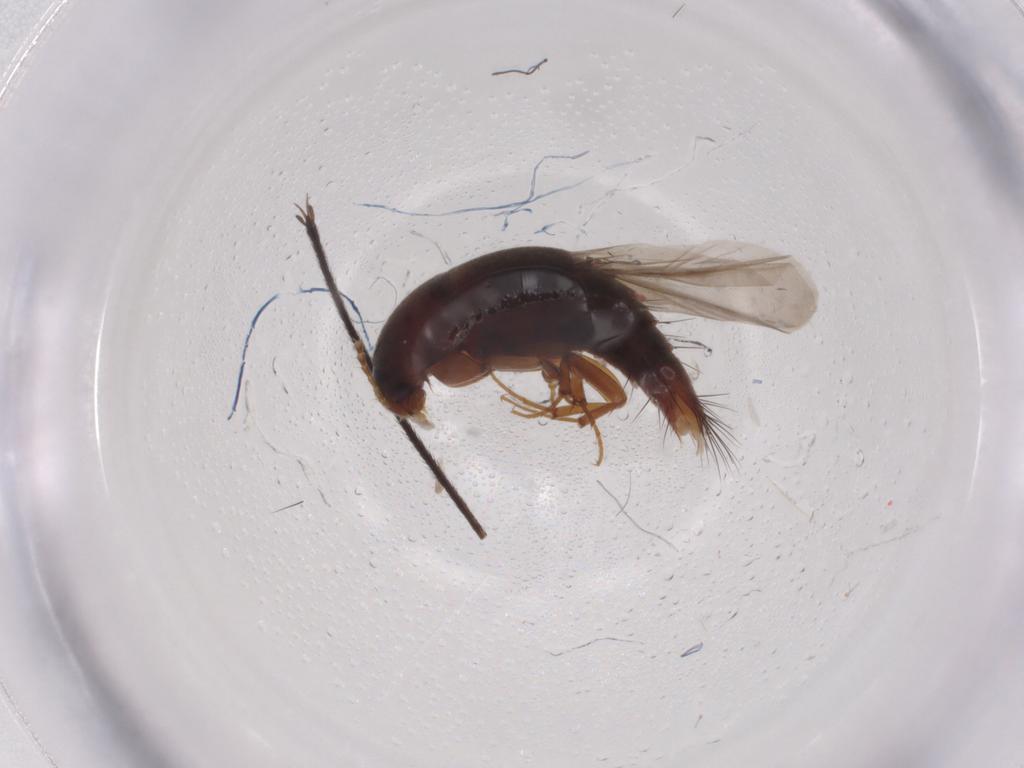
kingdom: Animalia
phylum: Arthropoda
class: Insecta
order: Coleoptera
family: Staphylinidae
